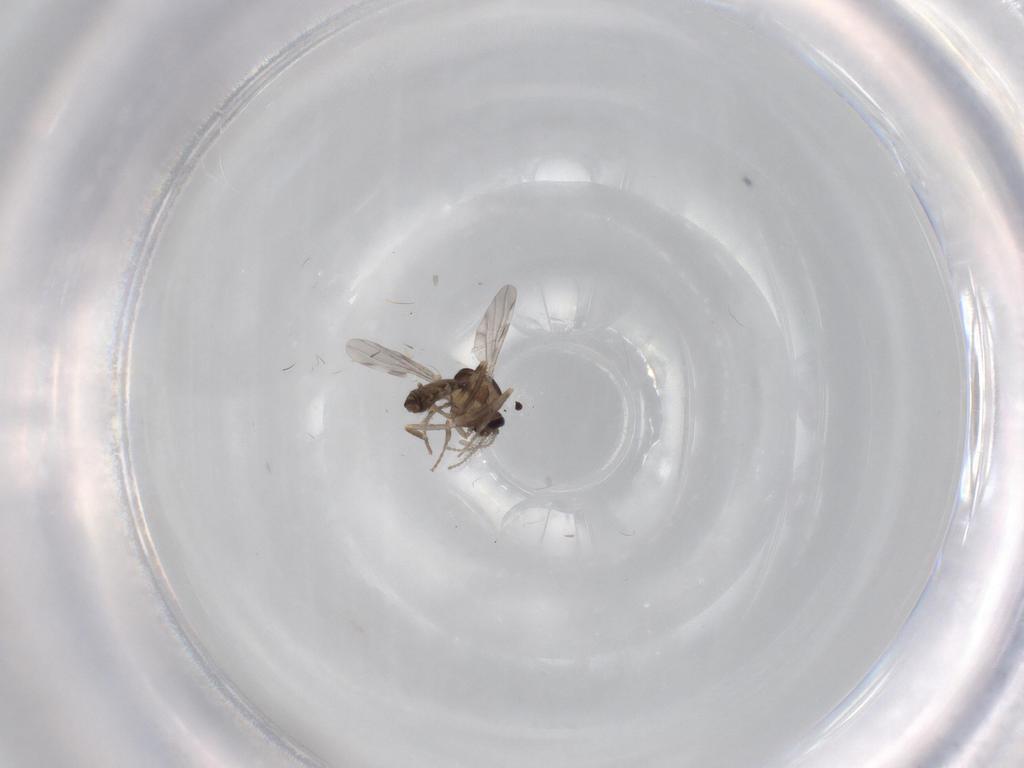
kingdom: Animalia
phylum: Arthropoda
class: Insecta
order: Diptera
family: Ceratopogonidae
